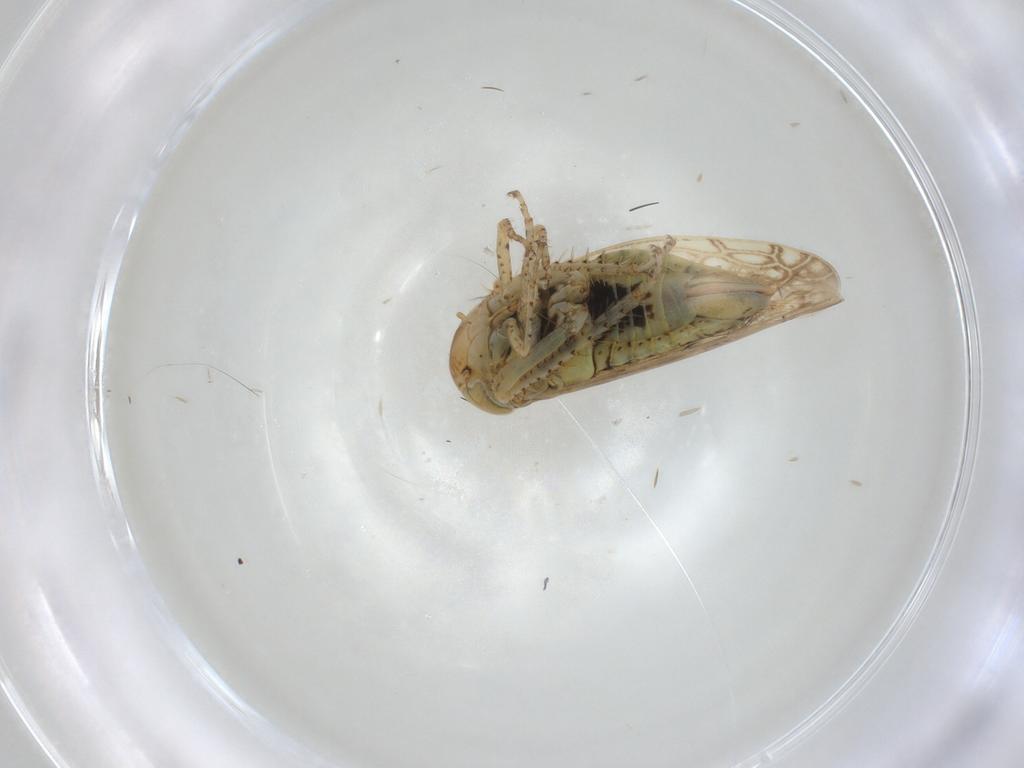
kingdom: Animalia
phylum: Arthropoda
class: Insecta
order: Hemiptera
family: Cicadellidae
